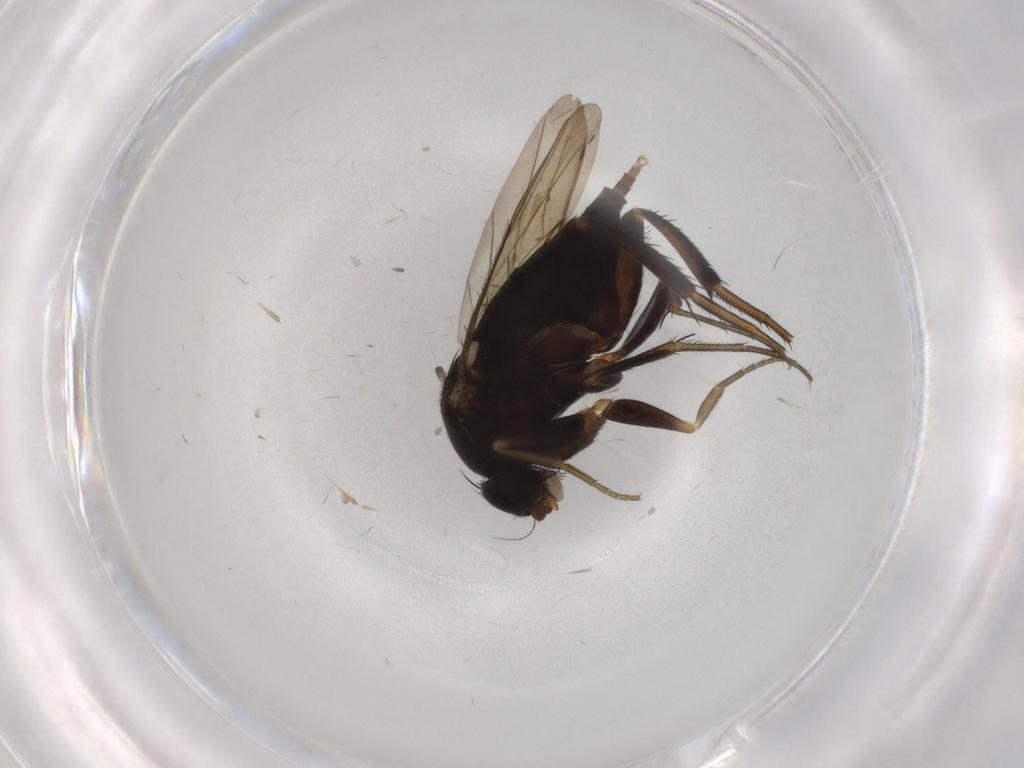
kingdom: Animalia
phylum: Arthropoda
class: Insecta
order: Diptera
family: Phoridae
